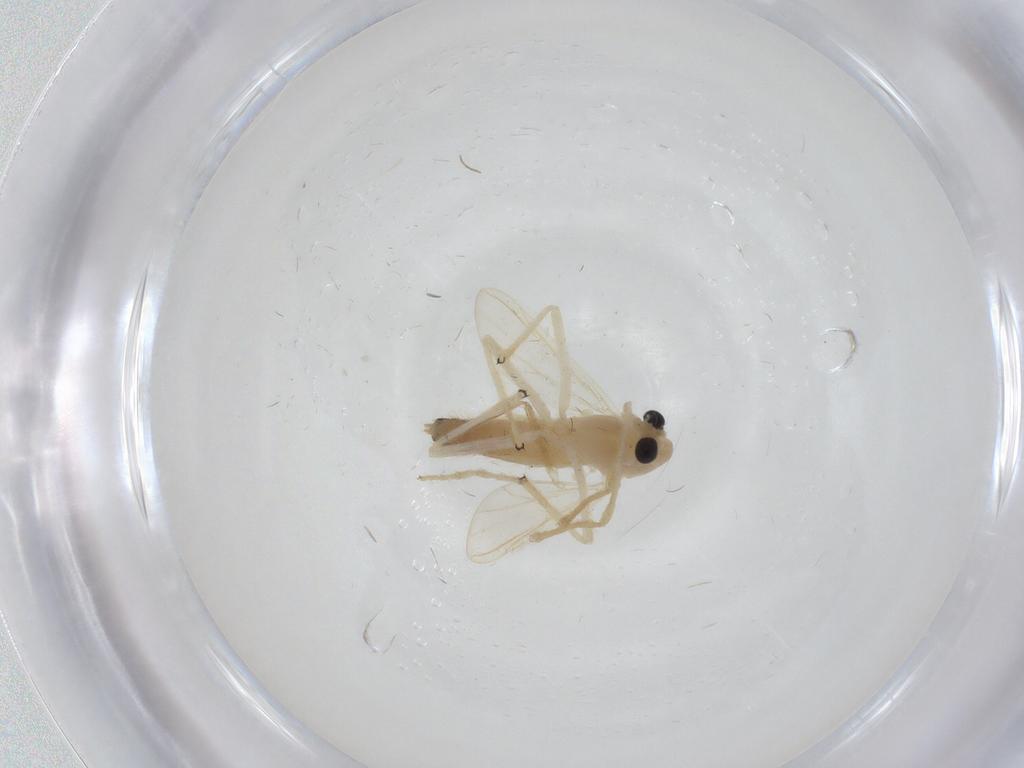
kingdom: Animalia
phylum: Arthropoda
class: Insecta
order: Diptera
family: Chironomidae
